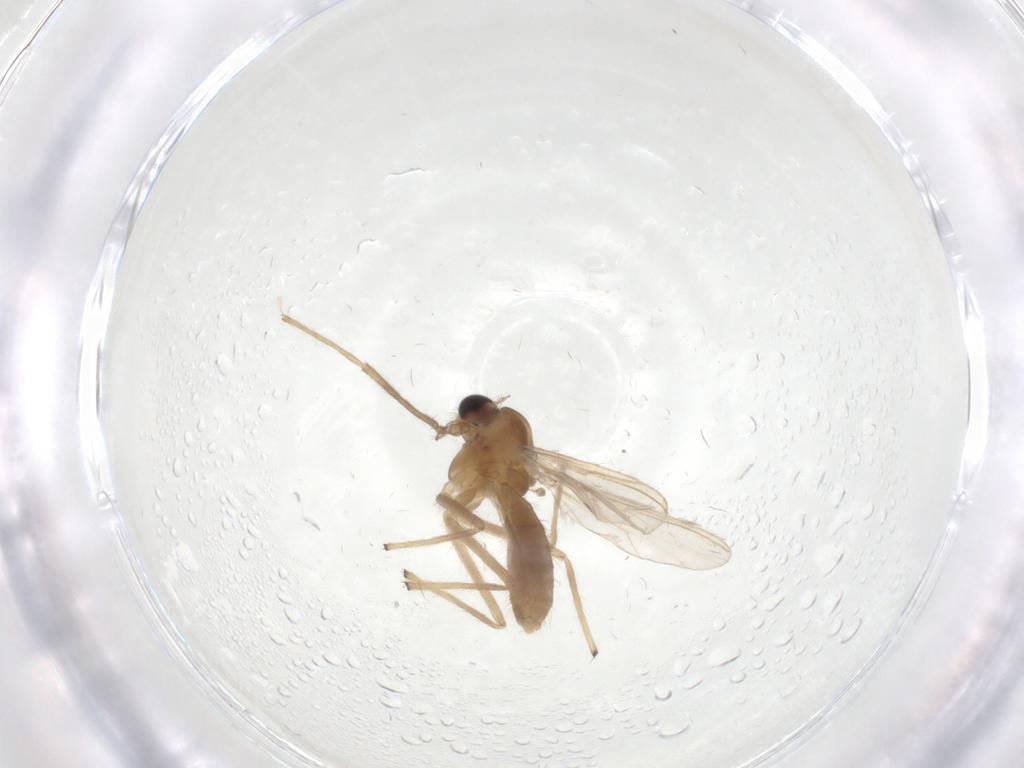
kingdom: Animalia
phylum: Arthropoda
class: Insecta
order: Diptera
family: Chironomidae
